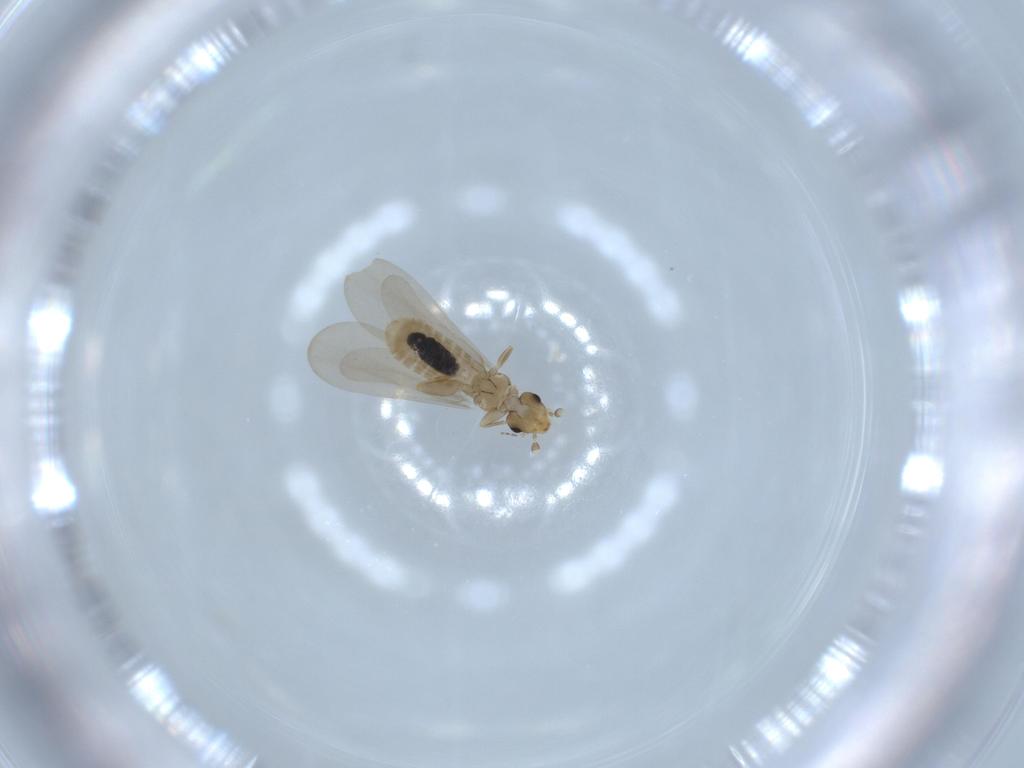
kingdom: Animalia
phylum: Arthropoda
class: Insecta
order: Psocodea
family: Liposcelididae
